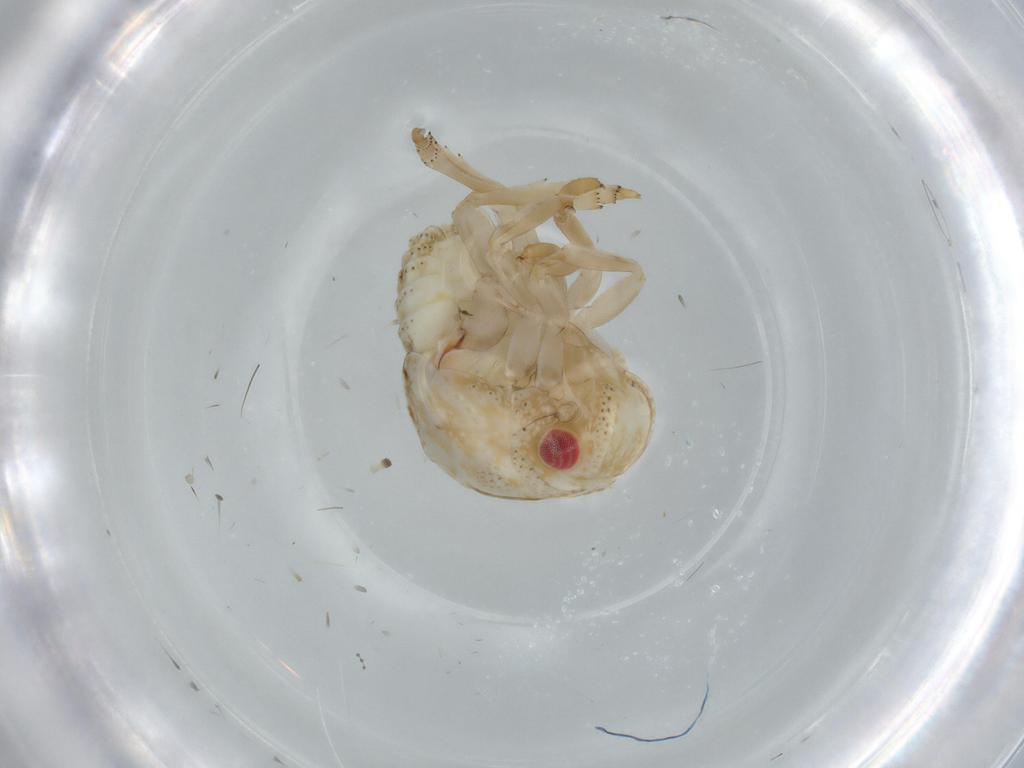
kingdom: Animalia
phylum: Arthropoda
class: Insecta
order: Hemiptera
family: Acanaloniidae
